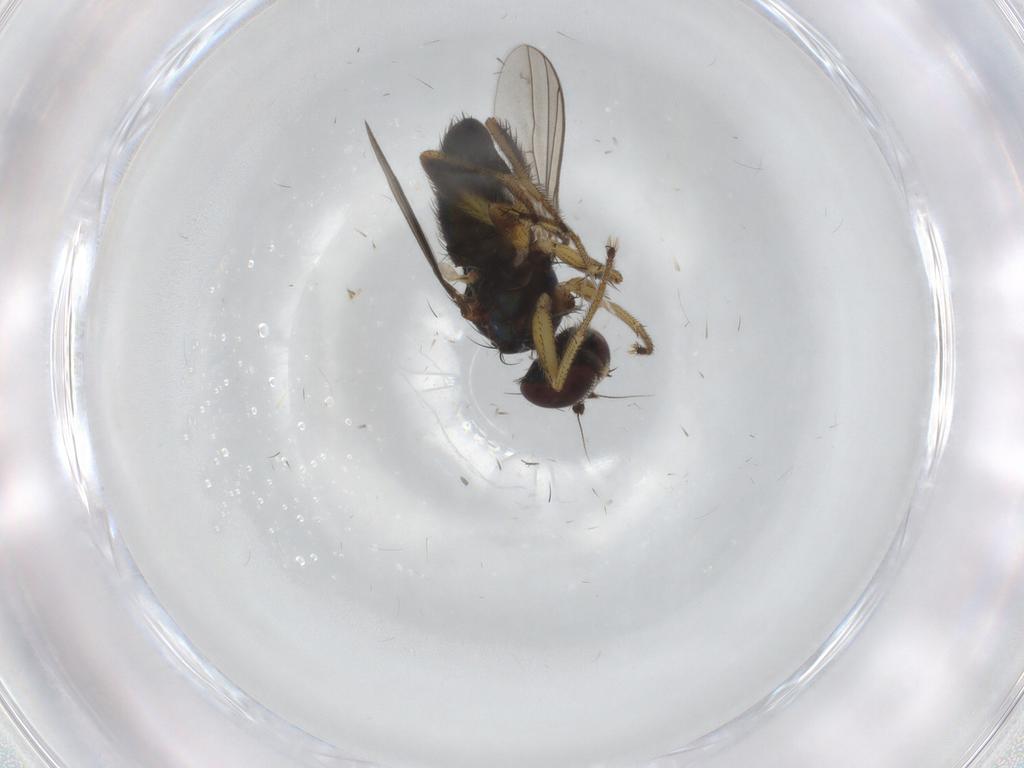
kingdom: Animalia
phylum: Arthropoda
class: Insecta
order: Diptera
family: Dolichopodidae
